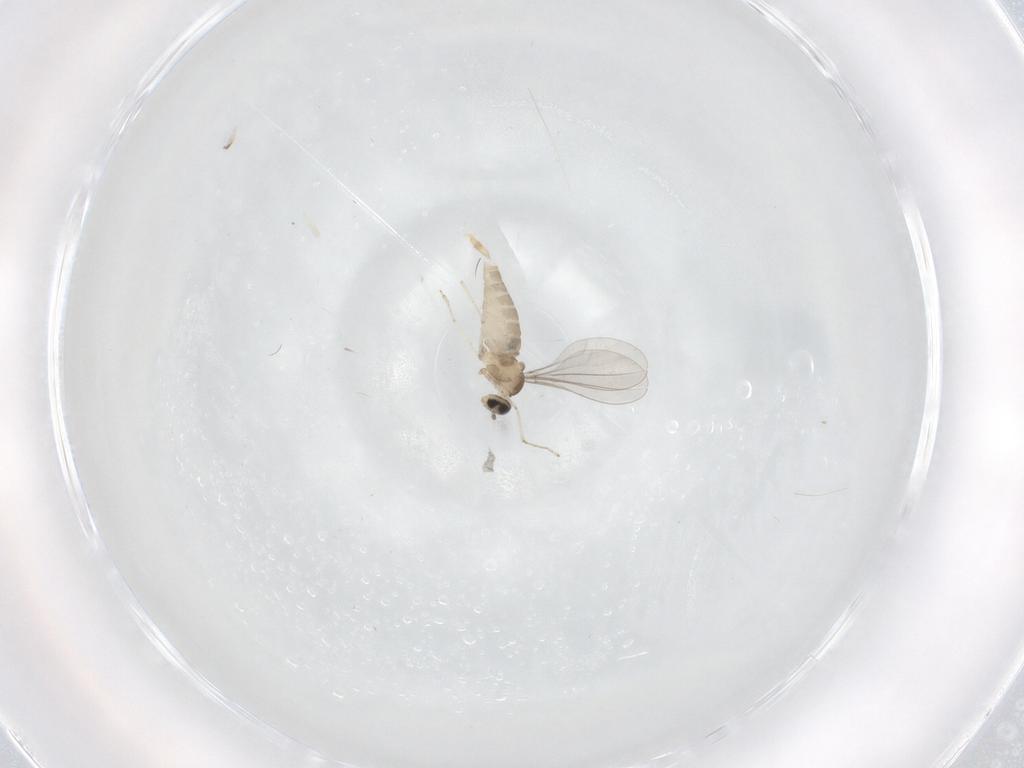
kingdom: Animalia
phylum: Arthropoda
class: Insecta
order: Diptera
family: Cecidomyiidae
